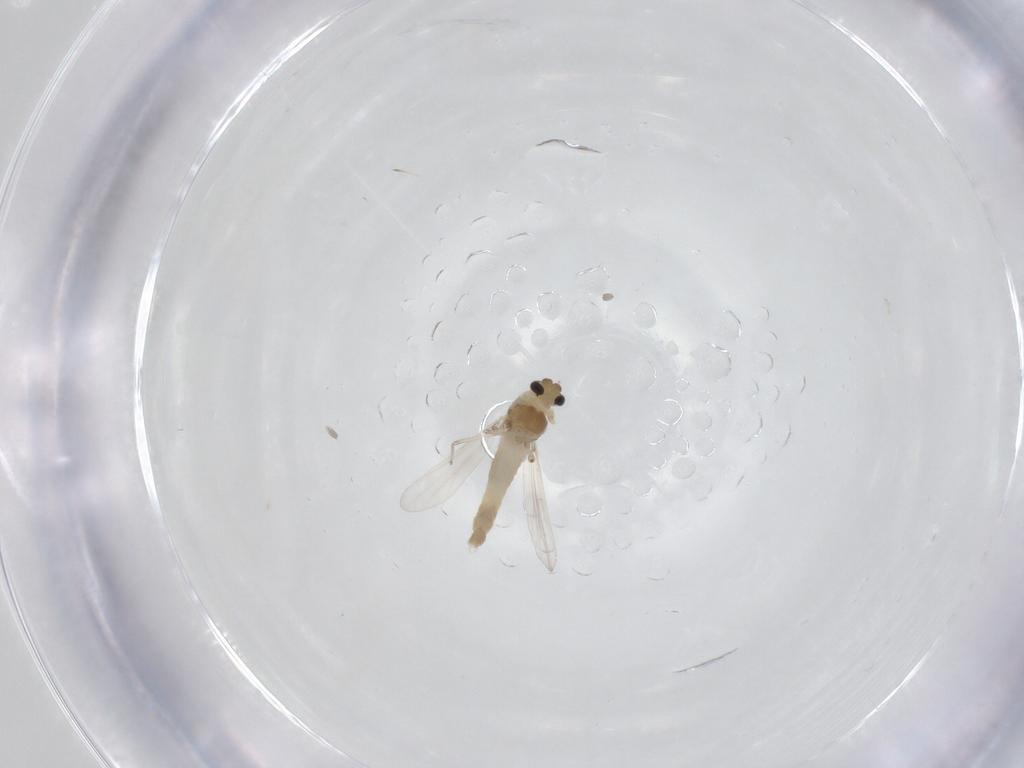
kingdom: Animalia
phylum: Arthropoda
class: Insecta
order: Diptera
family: Chironomidae
